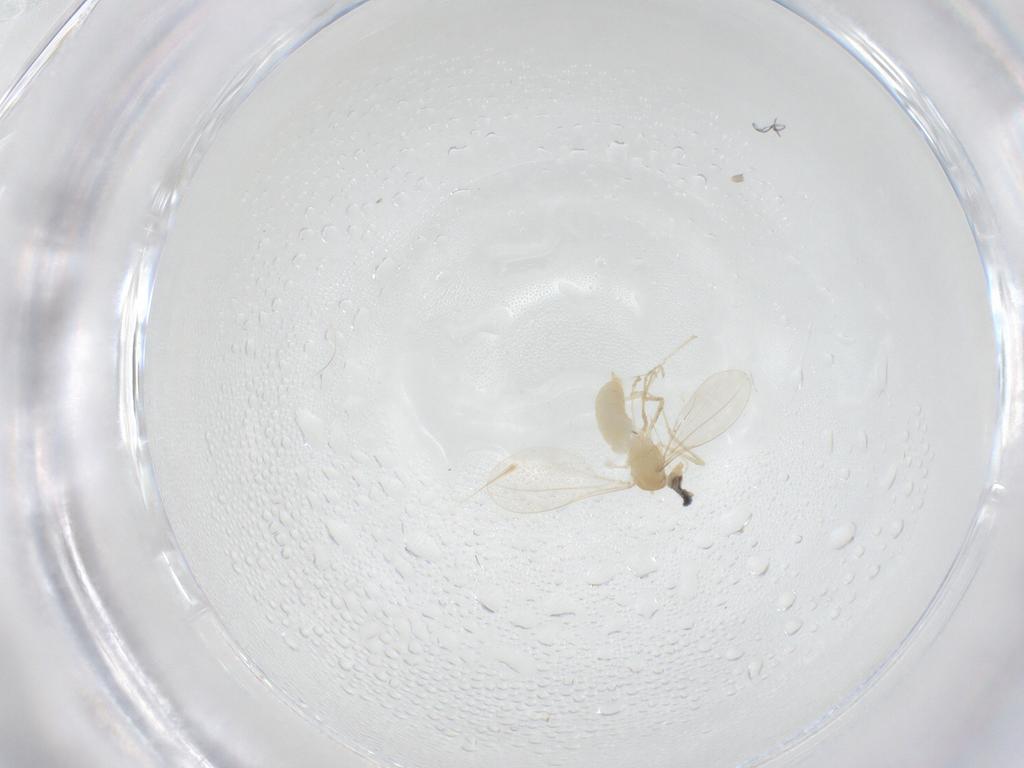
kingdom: Animalia
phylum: Arthropoda
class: Insecta
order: Diptera
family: Cecidomyiidae
